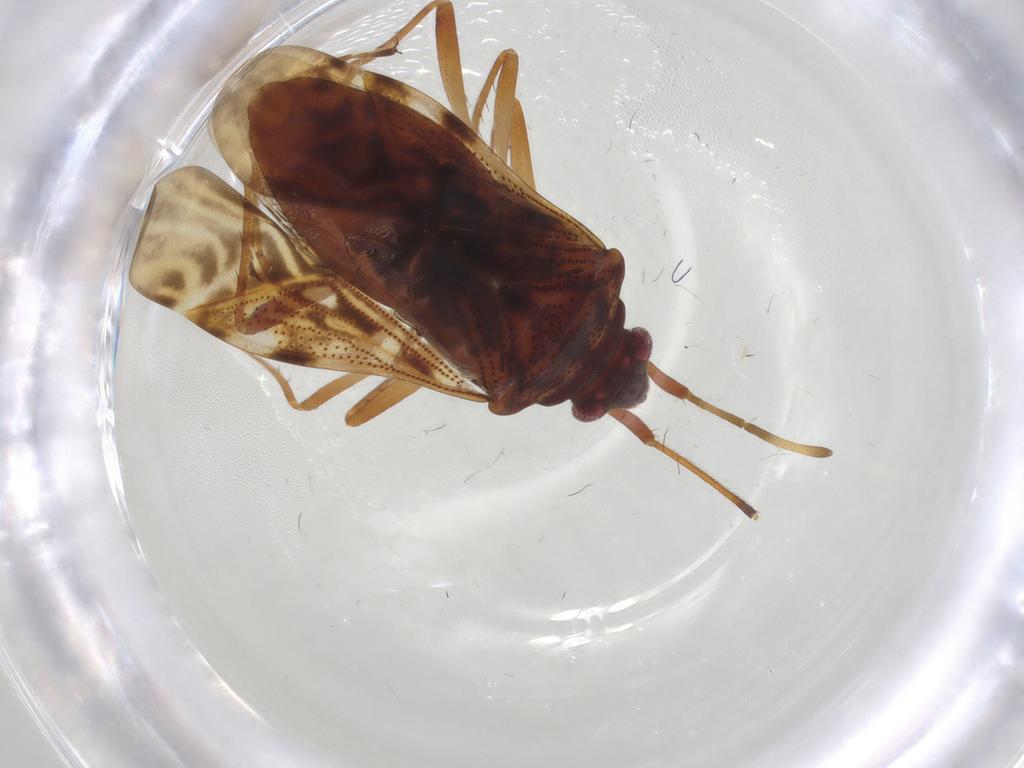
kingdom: Animalia
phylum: Arthropoda
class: Insecta
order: Hemiptera
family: Rhyparochromidae
